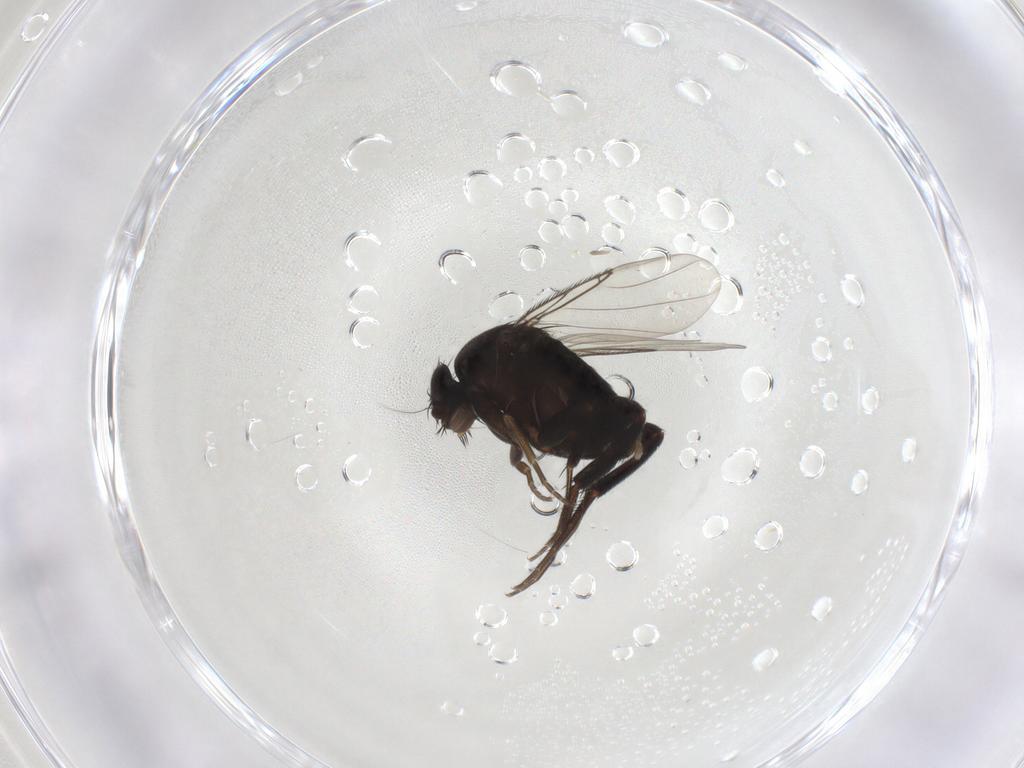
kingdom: Animalia
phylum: Arthropoda
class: Insecta
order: Diptera
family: Phoridae
